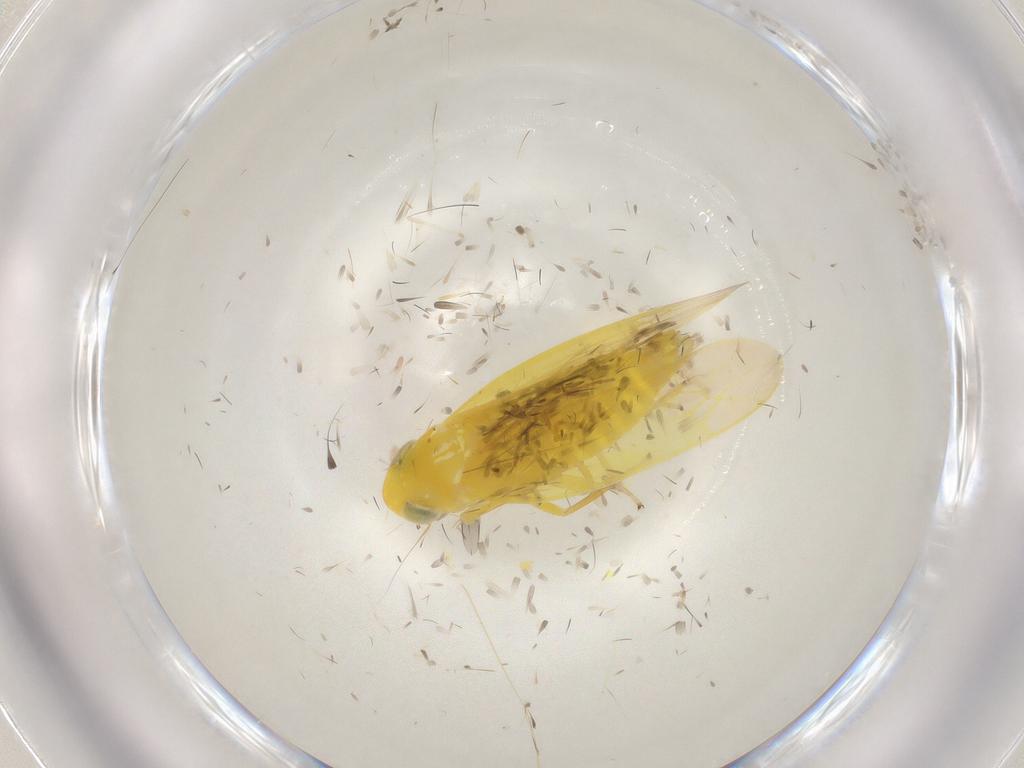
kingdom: Animalia
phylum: Arthropoda
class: Insecta
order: Hemiptera
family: Cicadellidae
